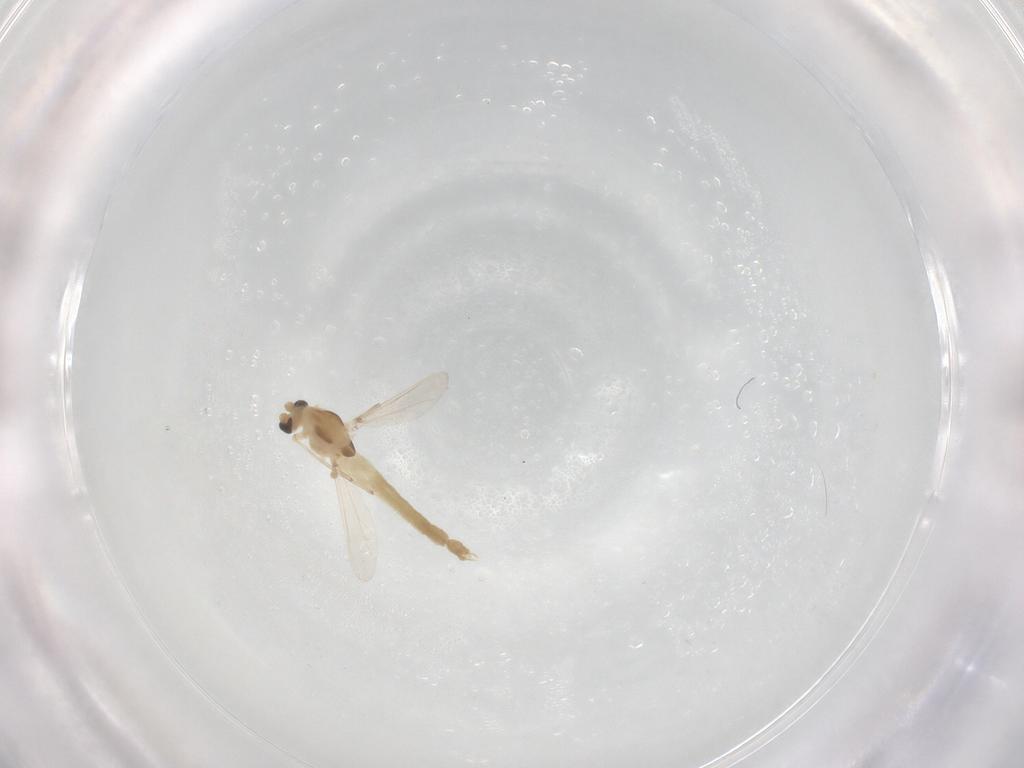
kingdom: Animalia
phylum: Arthropoda
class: Insecta
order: Diptera
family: Chironomidae
